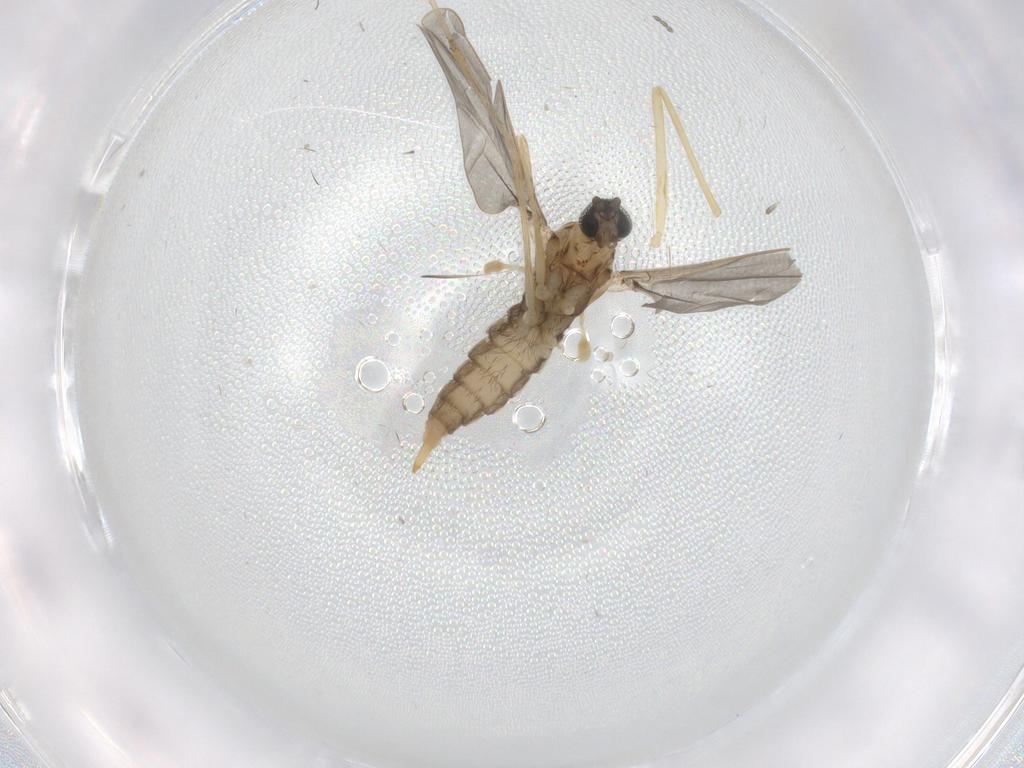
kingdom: Animalia
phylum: Arthropoda
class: Insecta
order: Diptera
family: Cecidomyiidae
